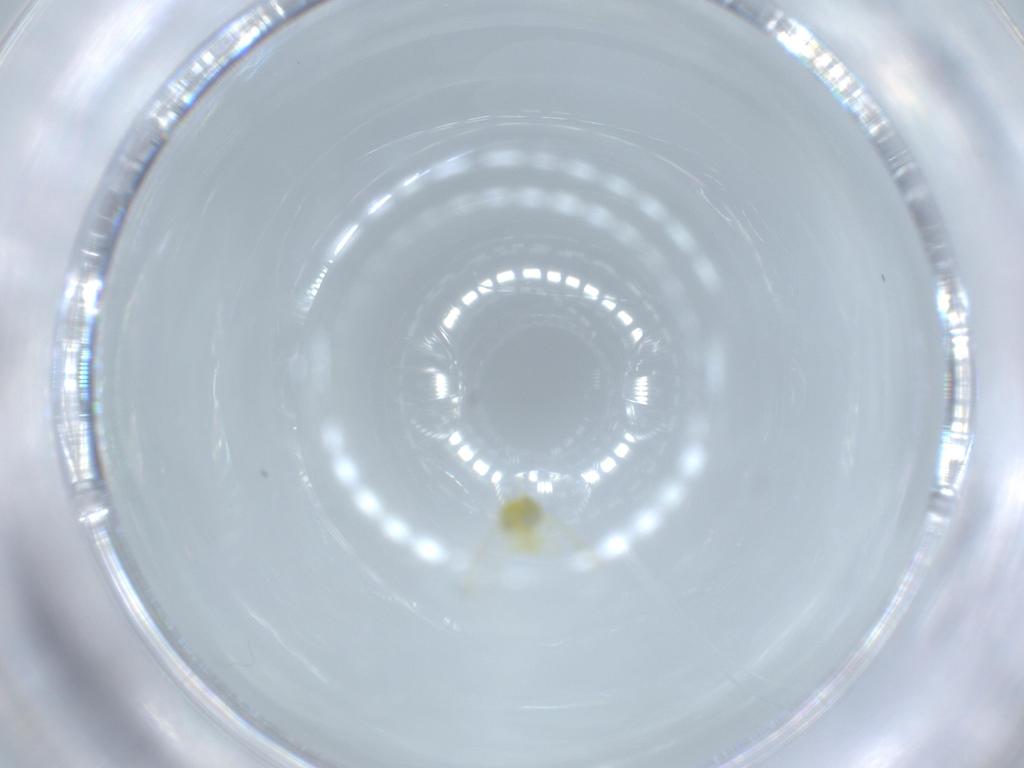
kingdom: Animalia
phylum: Arthropoda
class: Insecta
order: Hemiptera
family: Aleyrodidae
